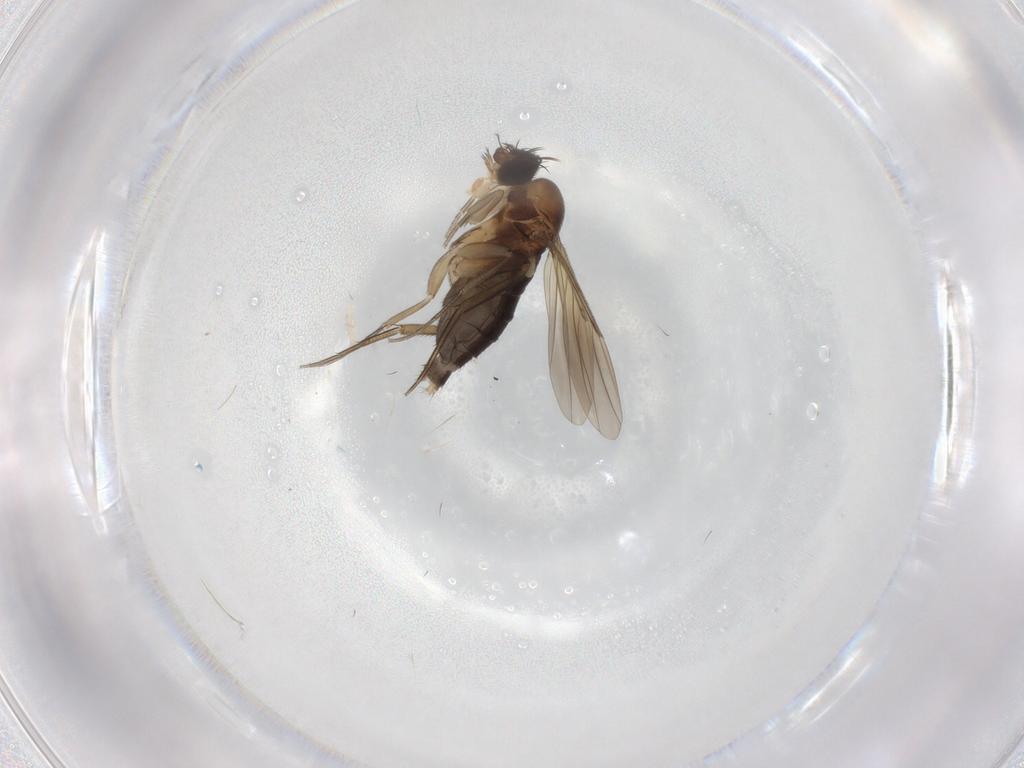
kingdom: Animalia
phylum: Arthropoda
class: Insecta
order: Diptera
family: Phoridae
